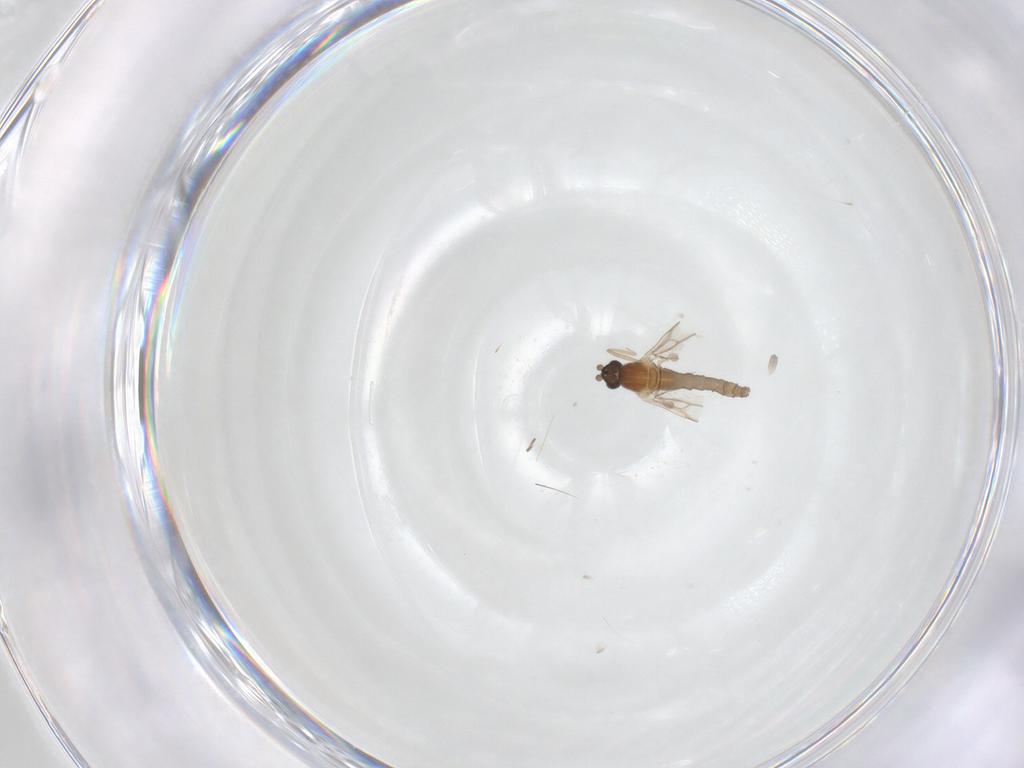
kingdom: Animalia
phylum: Arthropoda
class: Insecta
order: Diptera
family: Cecidomyiidae
